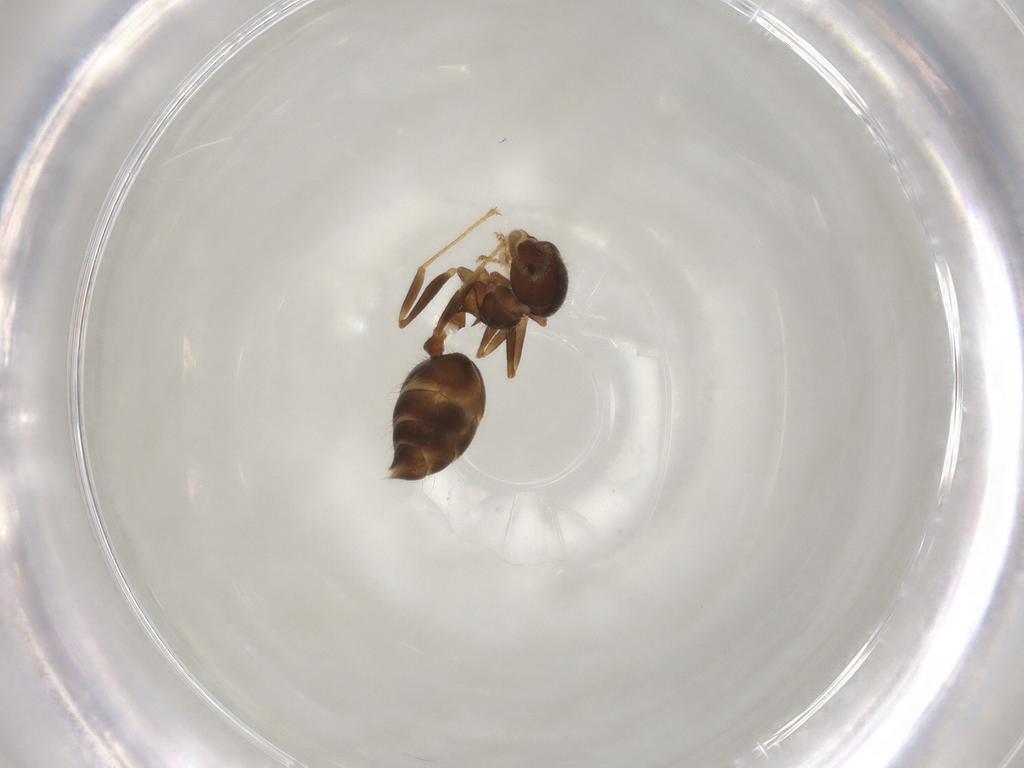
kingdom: Animalia
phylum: Arthropoda
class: Insecta
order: Hymenoptera
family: Formicidae
